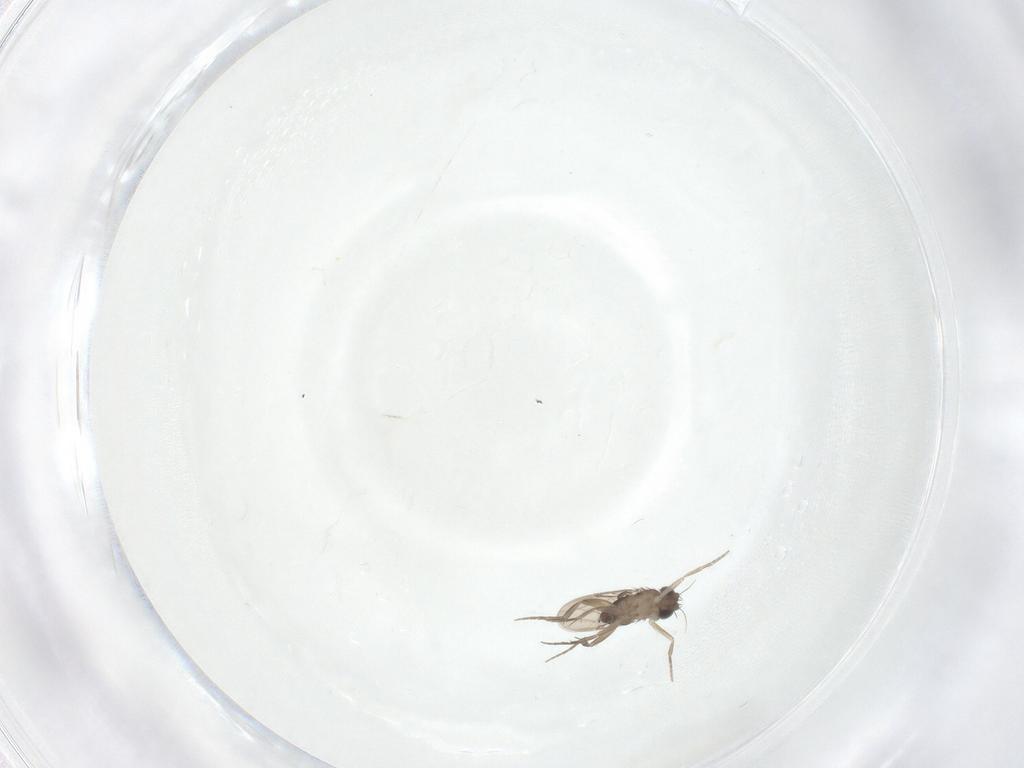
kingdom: Animalia
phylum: Arthropoda
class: Insecta
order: Diptera
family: Phoridae
